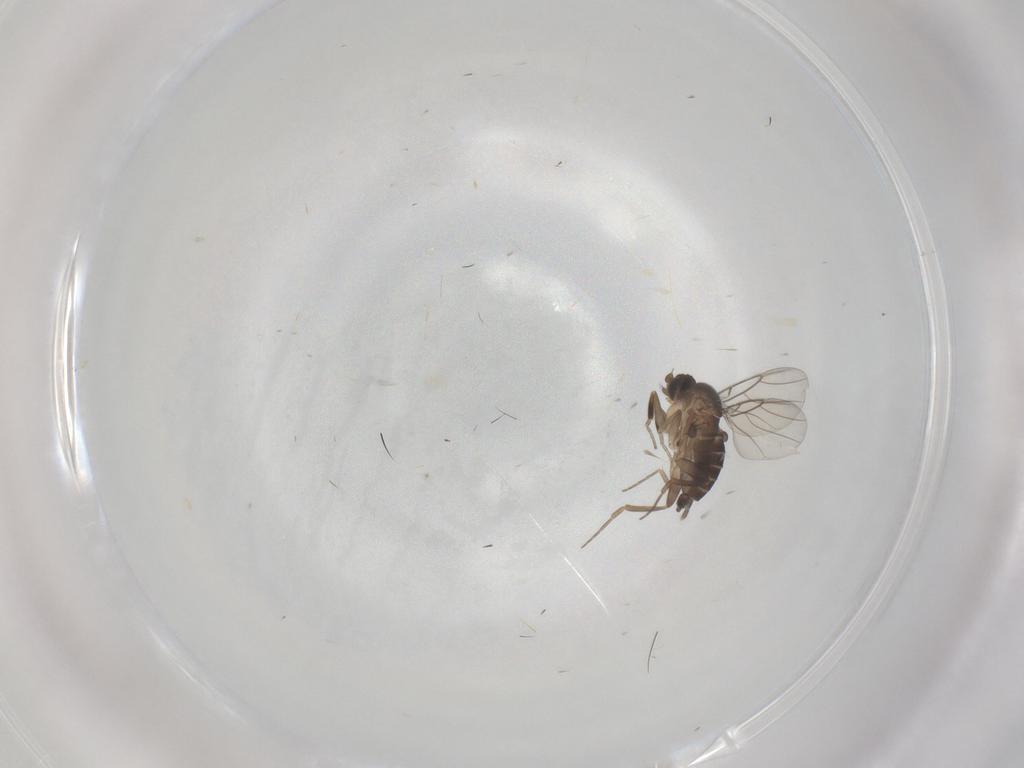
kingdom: Animalia
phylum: Arthropoda
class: Insecta
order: Diptera
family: Phoridae
